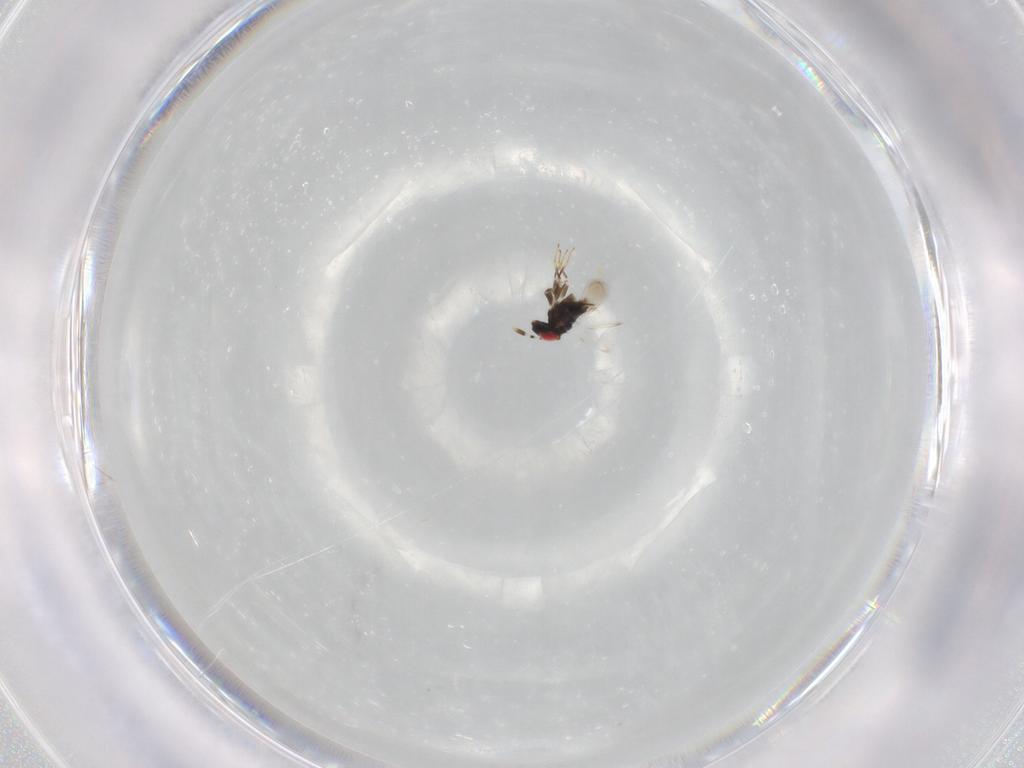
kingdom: Animalia
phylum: Arthropoda
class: Insecta
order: Hymenoptera
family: Azotidae
